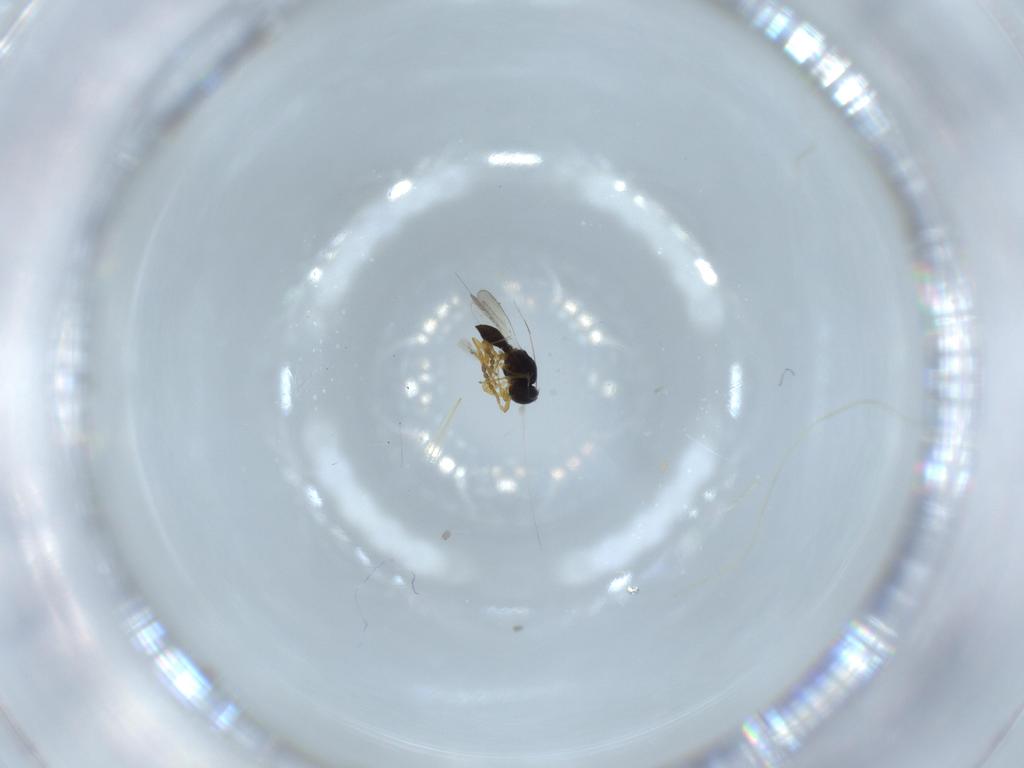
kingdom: Animalia
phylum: Arthropoda
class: Insecta
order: Hymenoptera
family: Platygastridae
